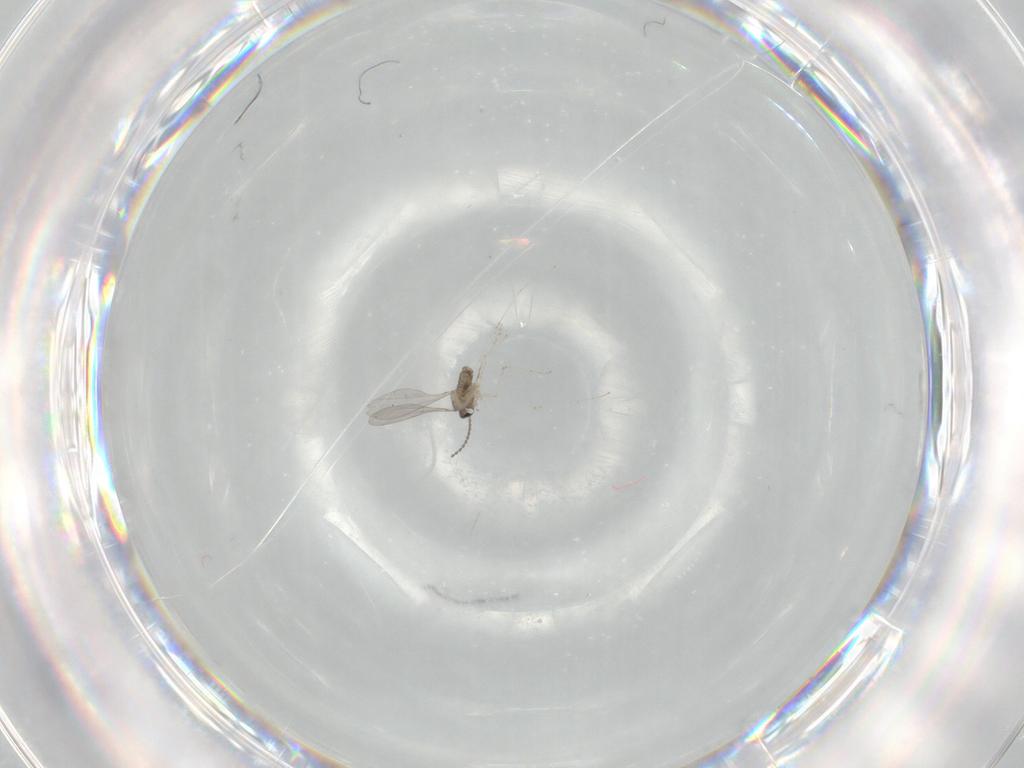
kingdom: Animalia
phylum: Arthropoda
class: Insecta
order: Diptera
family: Cecidomyiidae
